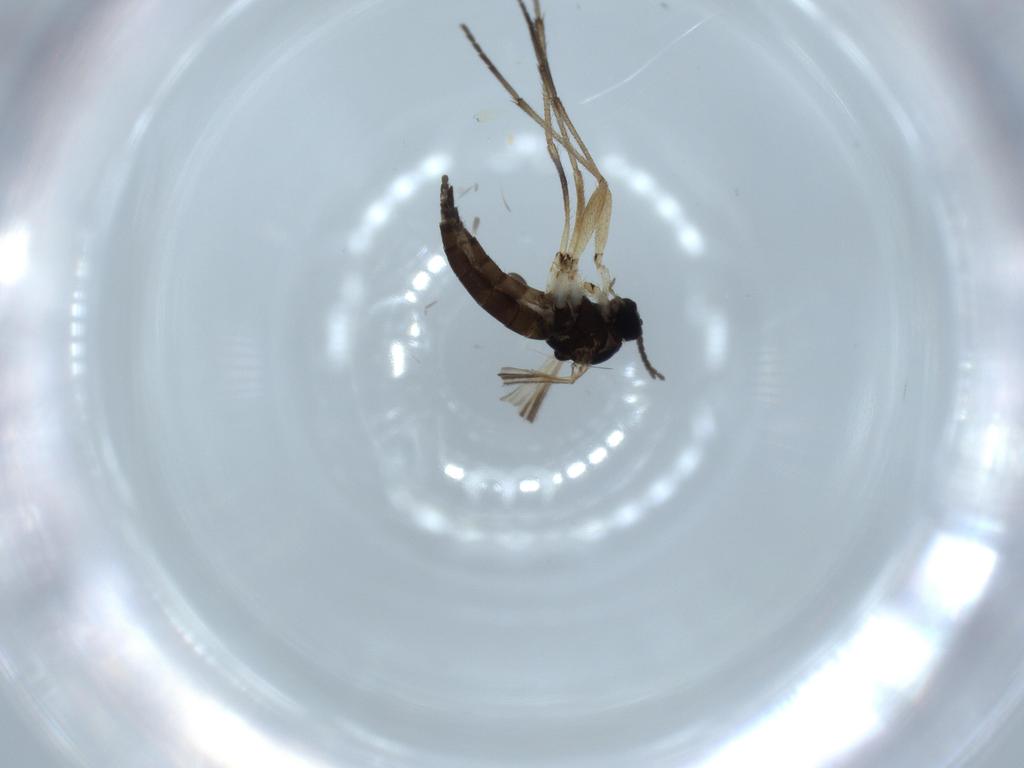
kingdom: Animalia
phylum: Arthropoda
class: Insecta
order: Diptera
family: Sciaridae
